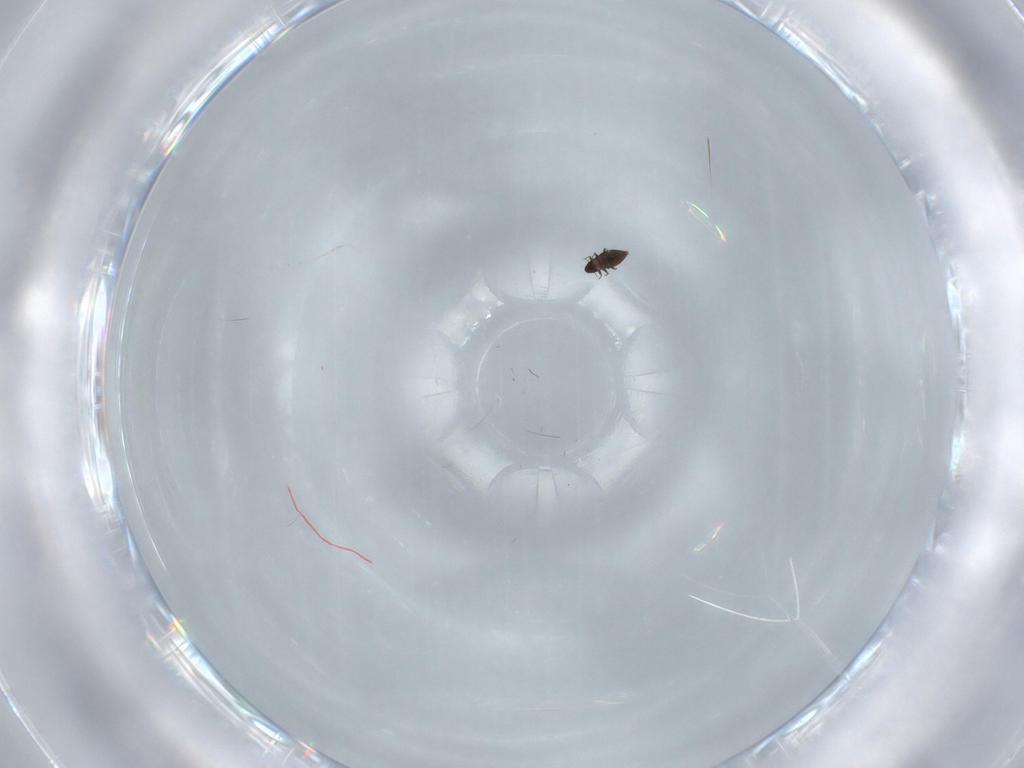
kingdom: Animalia
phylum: Arthropoda
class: Insecta
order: Coleoptera
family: Ripiphoridae
